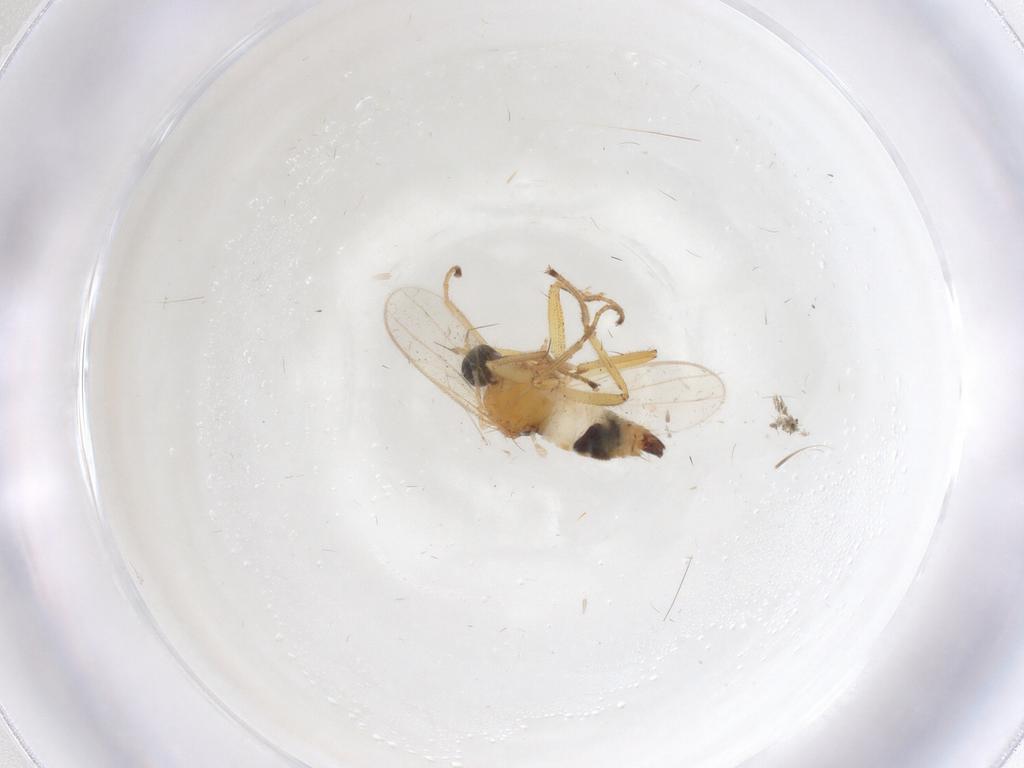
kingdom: Animalia
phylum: Arthropoda
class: Insecta
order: Diptera
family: Hybotidae
